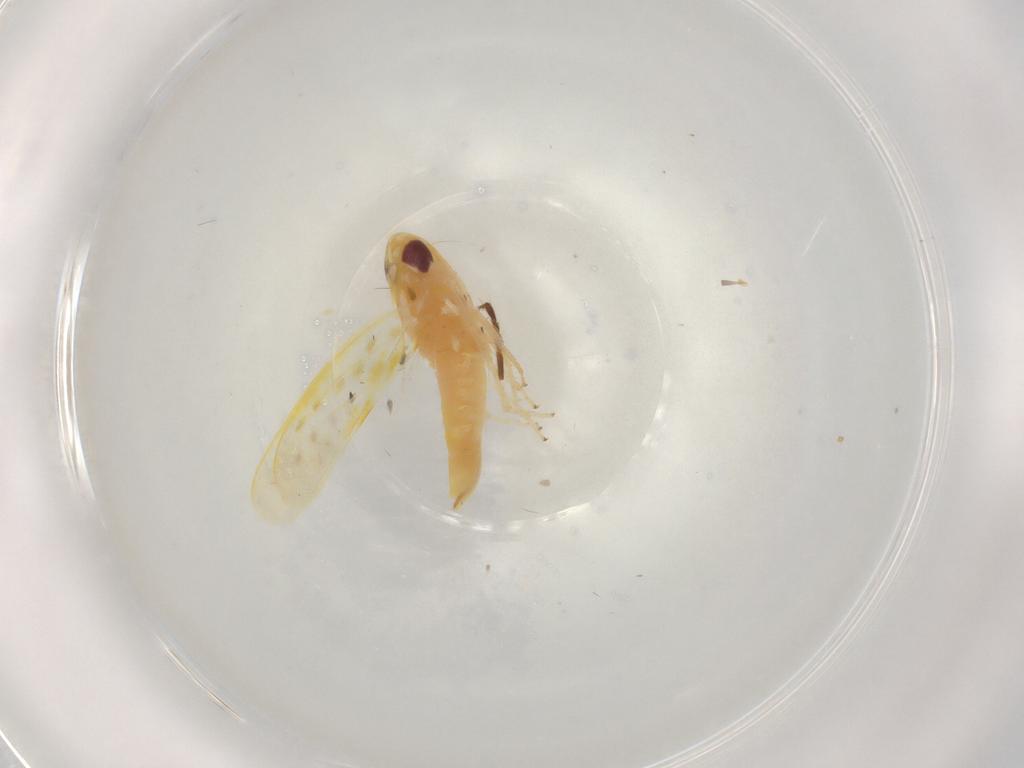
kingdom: Animalia
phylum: Arthropoda
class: Insecta
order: Hemiptera
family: Cicadellidae
